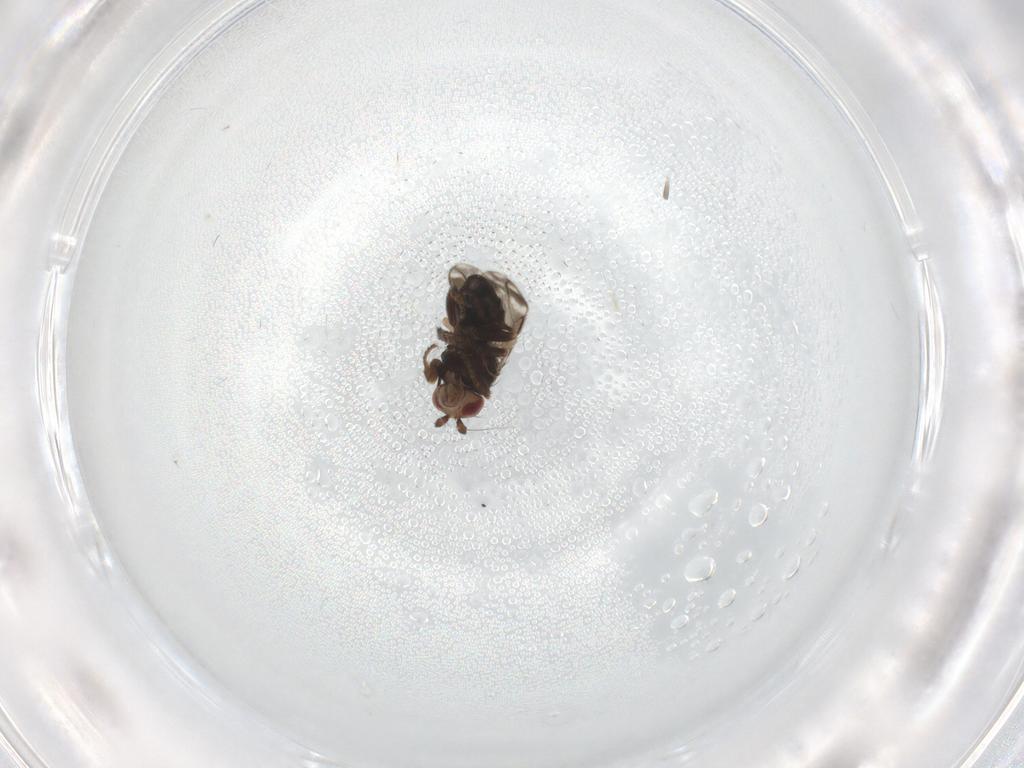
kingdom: Animalia
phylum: Arthropoda
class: Insecta
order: Diptera
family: Sphaeroceridae
